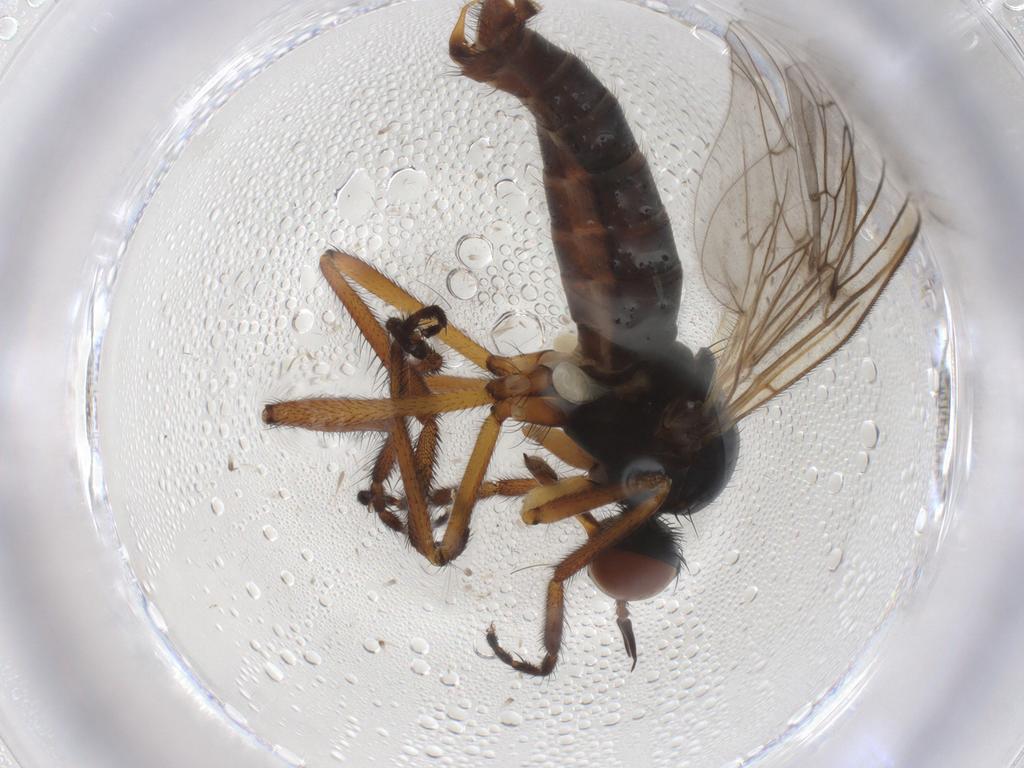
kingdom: Animalia
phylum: Arthropoda
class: Insecta
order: Diptera
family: Empididae
